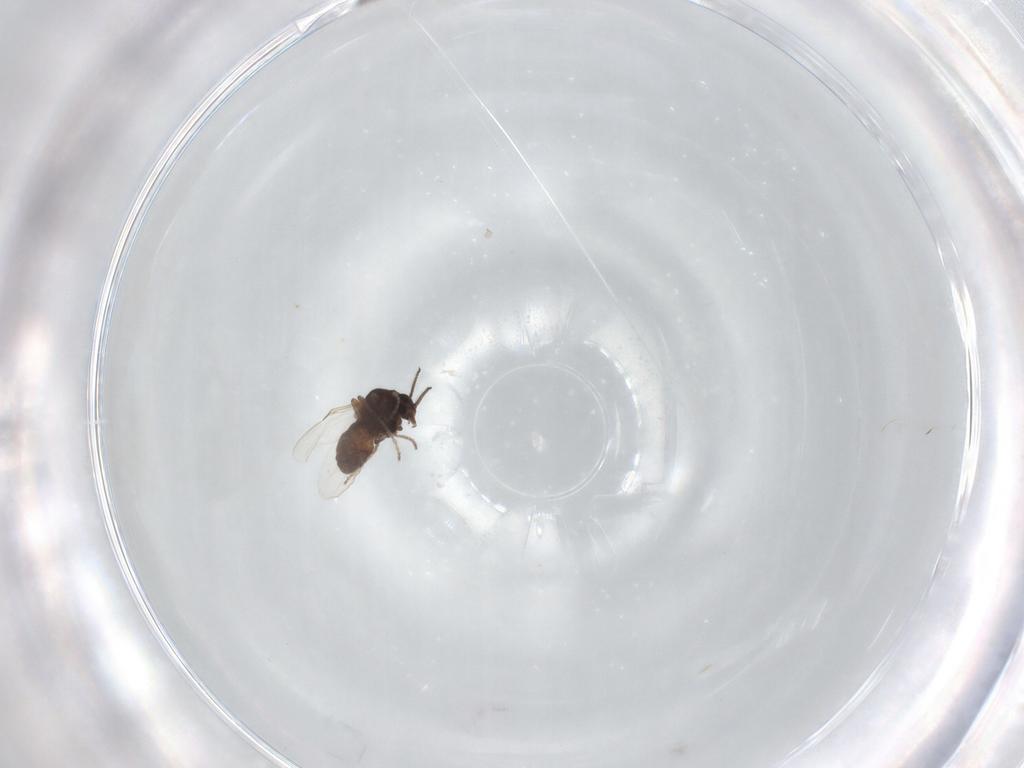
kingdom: Animalia
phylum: Arthropoda
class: Insecta
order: Diptera
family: Ceratopogonidae
